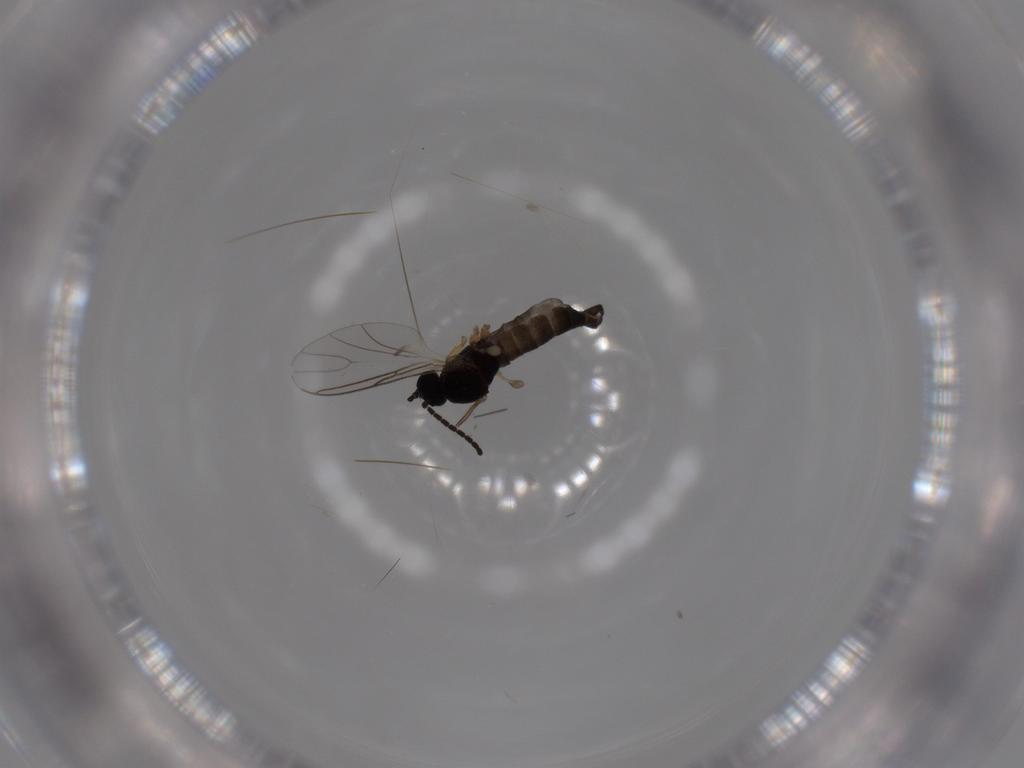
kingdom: Animalia
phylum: Arthropoda
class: Insecta
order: Diptera
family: Sciaridae
